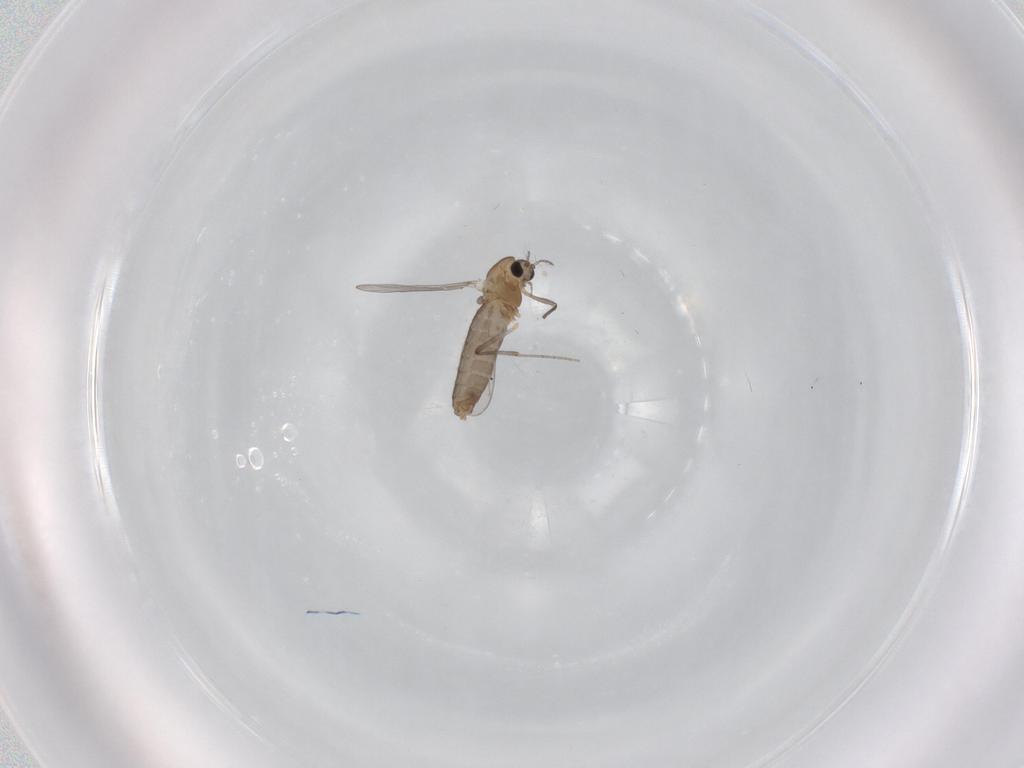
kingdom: Animalia
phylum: Arthropoda
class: Insecta
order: Diptera
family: Chironomidae
